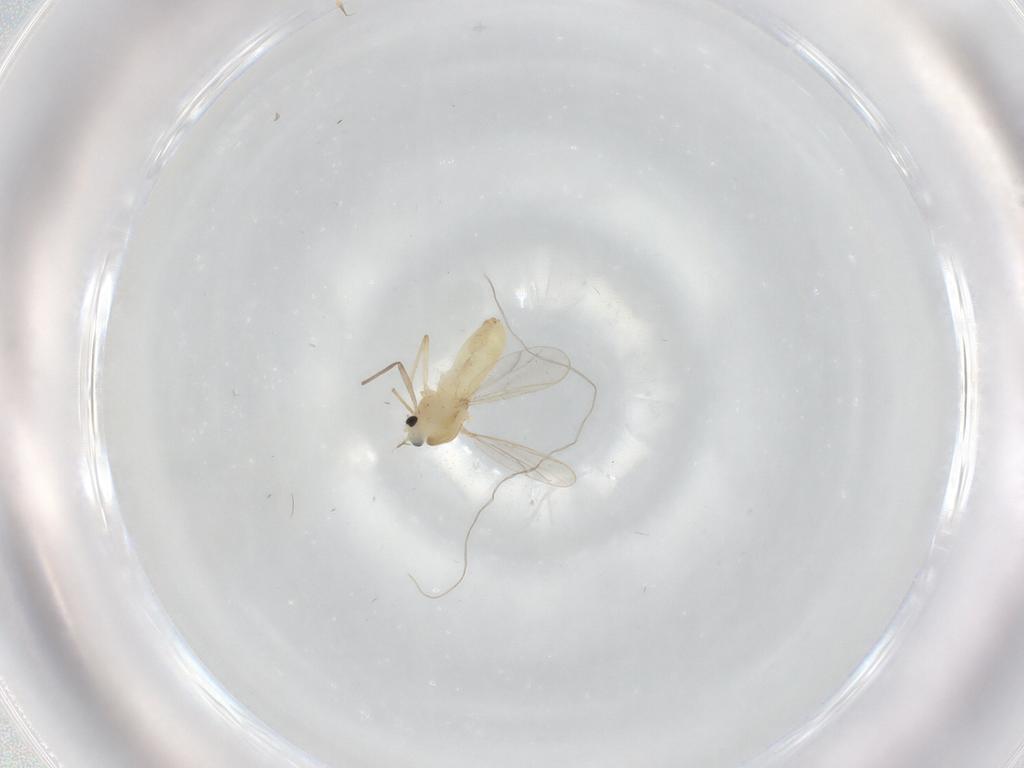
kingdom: Animalia
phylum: Arthropoda
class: Insecta
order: Diptera
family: Chironomidae
